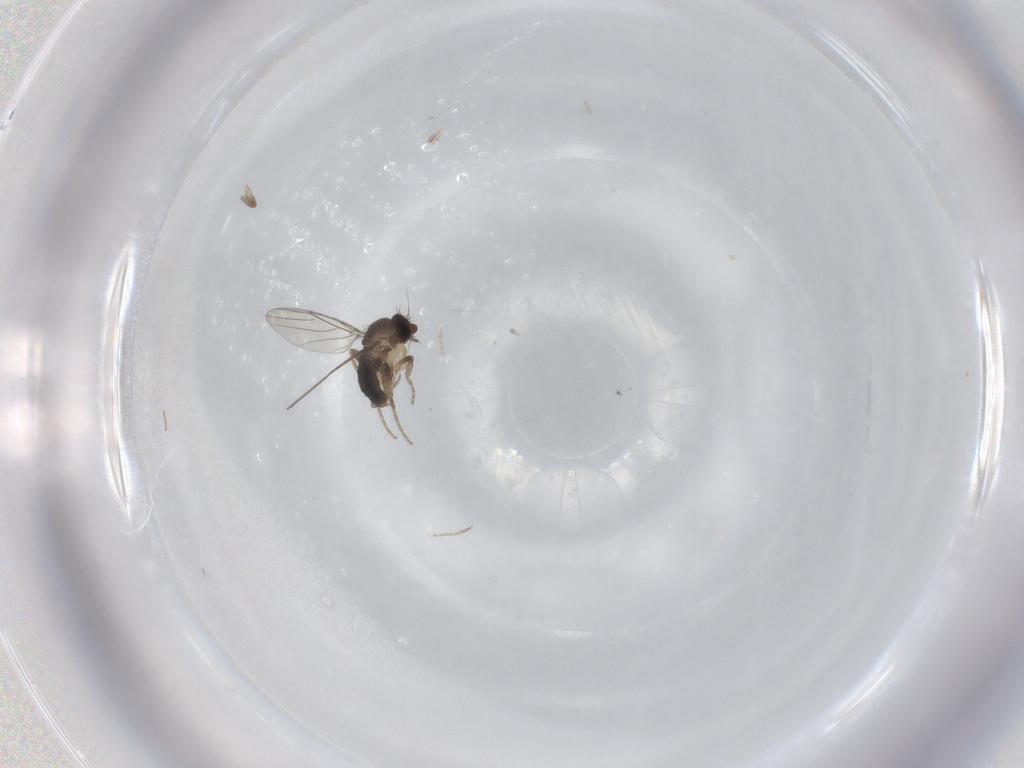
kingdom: Animalia
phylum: Arthropoda
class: Insecta
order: Diptera
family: Phoridae
